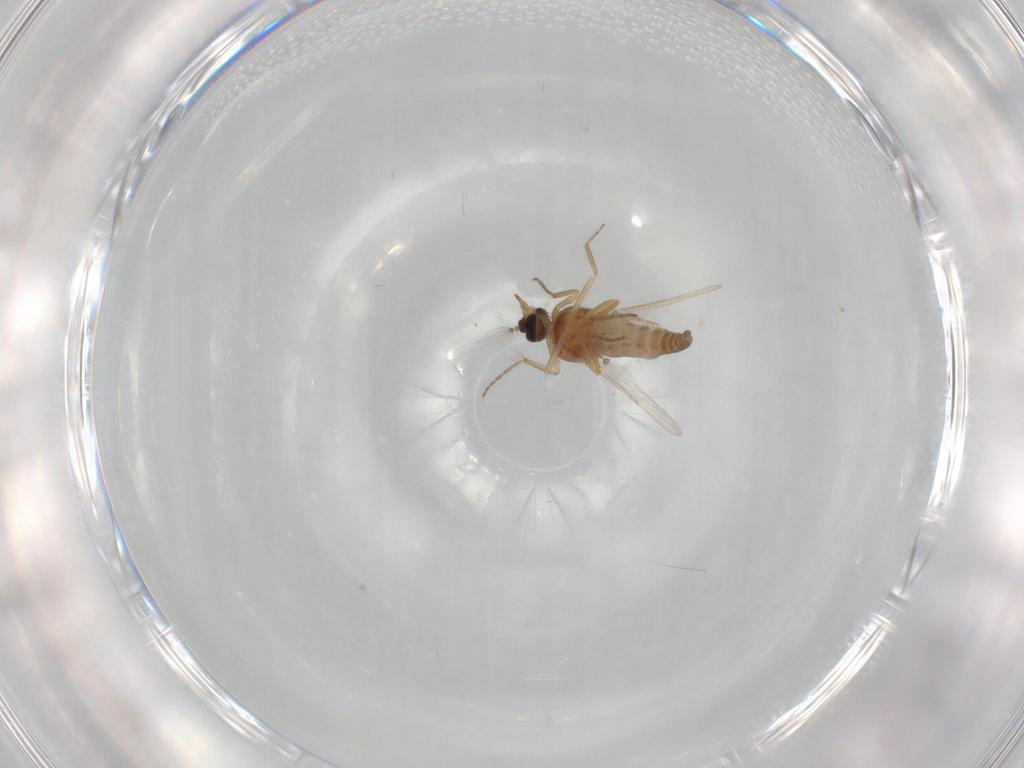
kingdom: Animalia
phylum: Arthropoda
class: Insecta
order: Diptera
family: Ceratopogonidae
